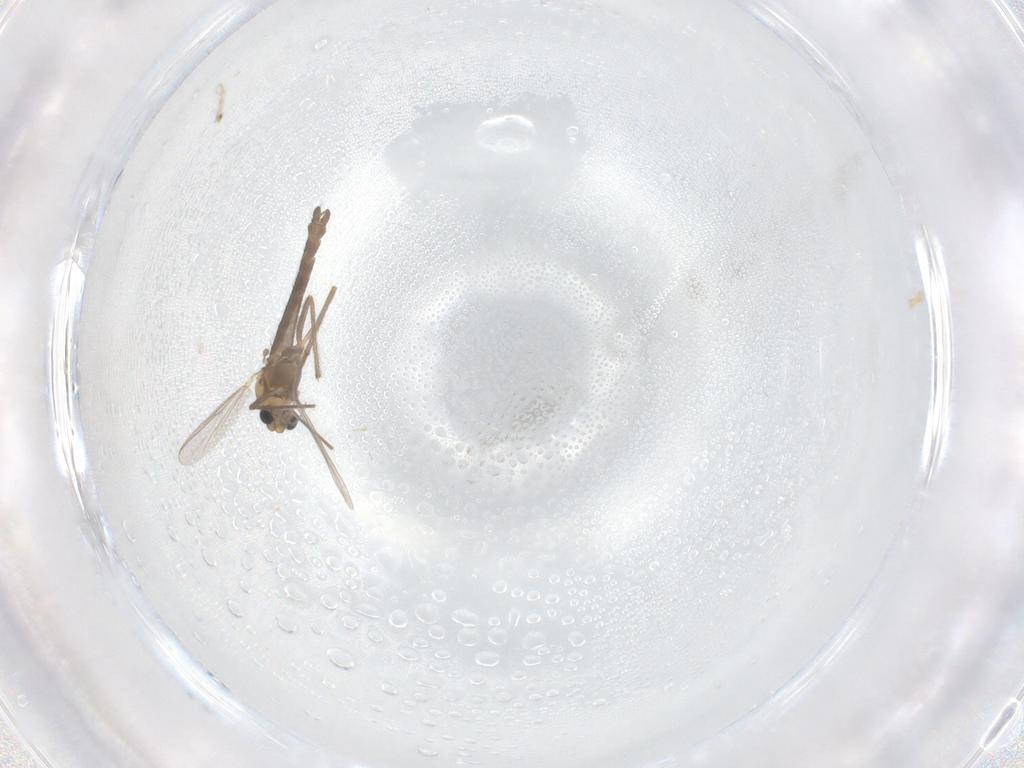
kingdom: Animalia
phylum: Arthropoda
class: Insecta
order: Diptera
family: Chironomidae
